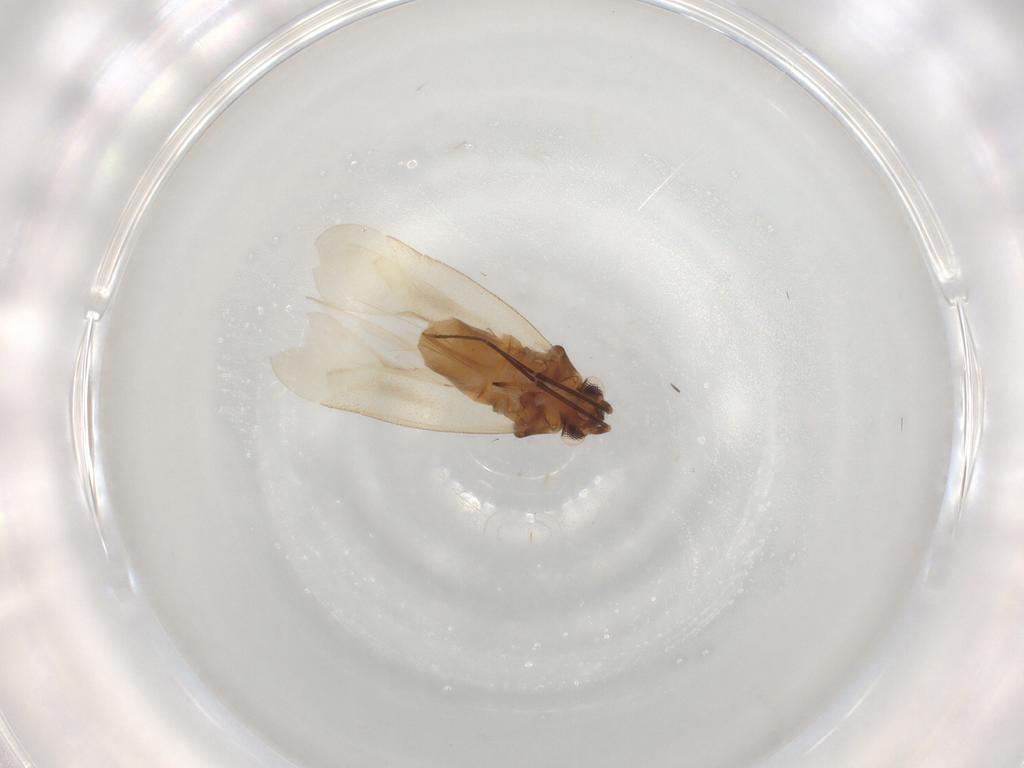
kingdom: Animalia
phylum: Arthropoda
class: Insecta
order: Hemiptera
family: Miridae
